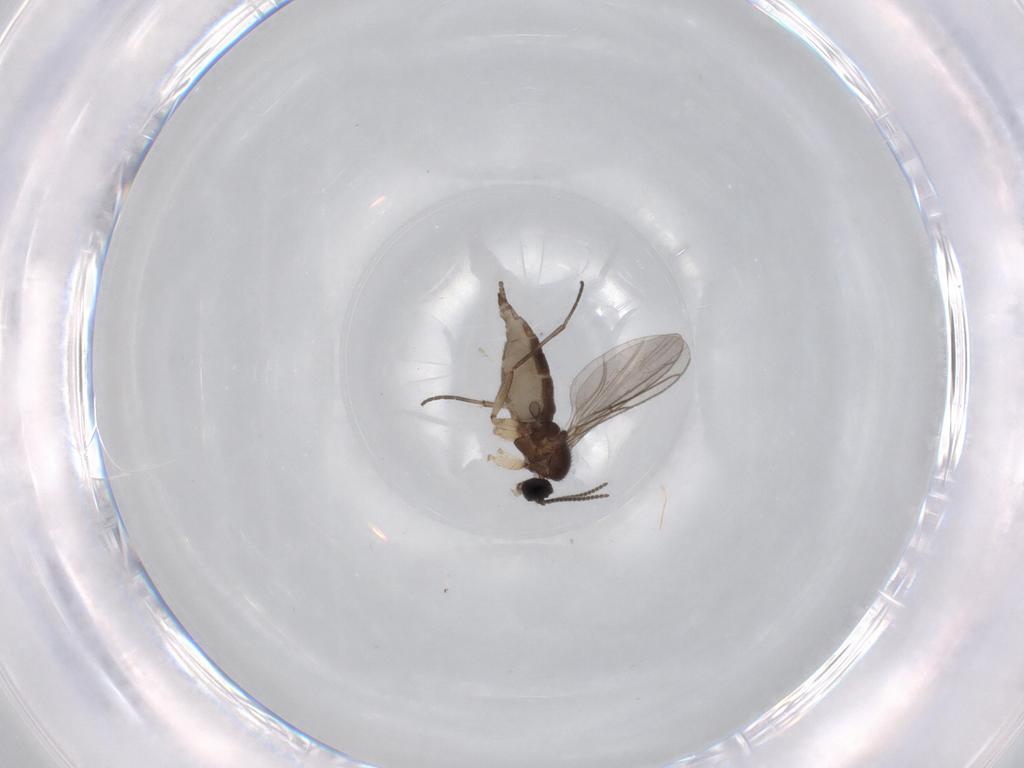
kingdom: Animalia
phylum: Arthropoda
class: Insecta
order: Diptera
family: Sciaridae
